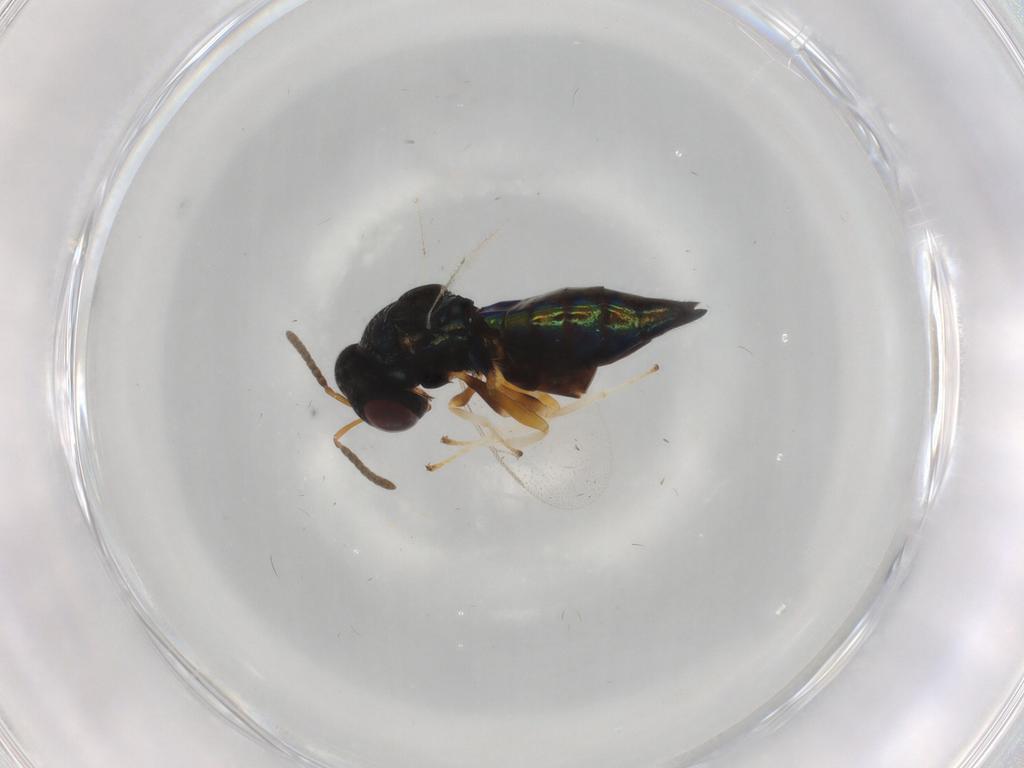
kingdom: Animalia
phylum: Arthropoda
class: Insecta
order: Hymenoptera
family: Pteromalidae
